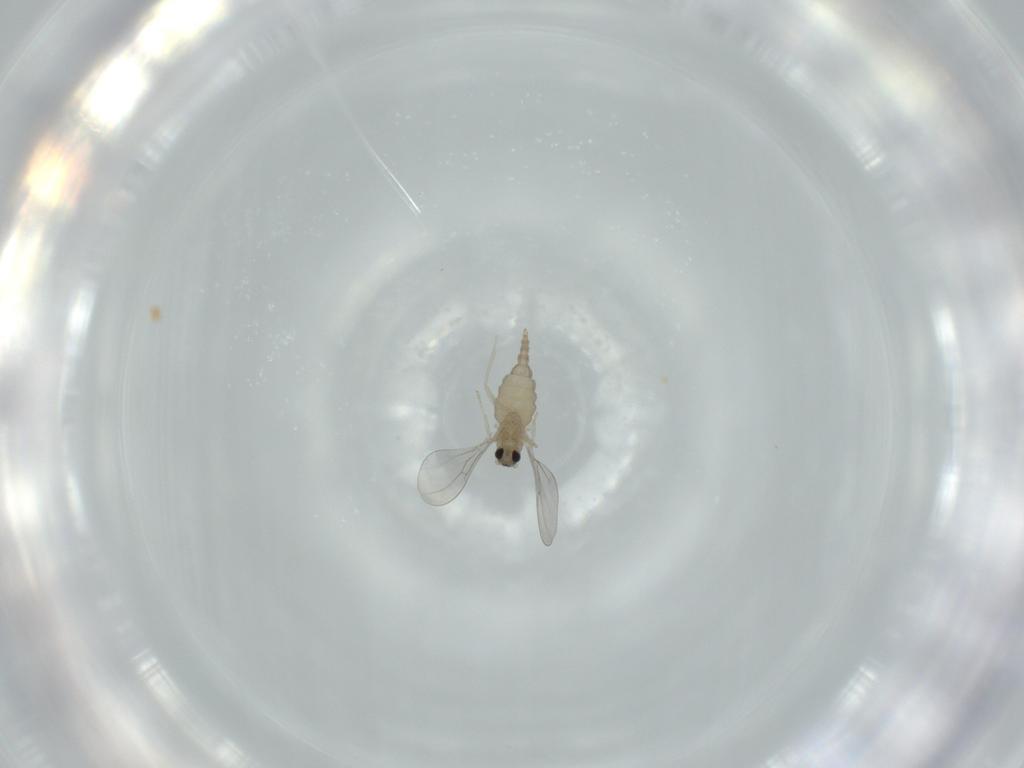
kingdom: Animalia
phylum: Arthropoda
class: Insecta
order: Diptera
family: Cecidomyiidae
